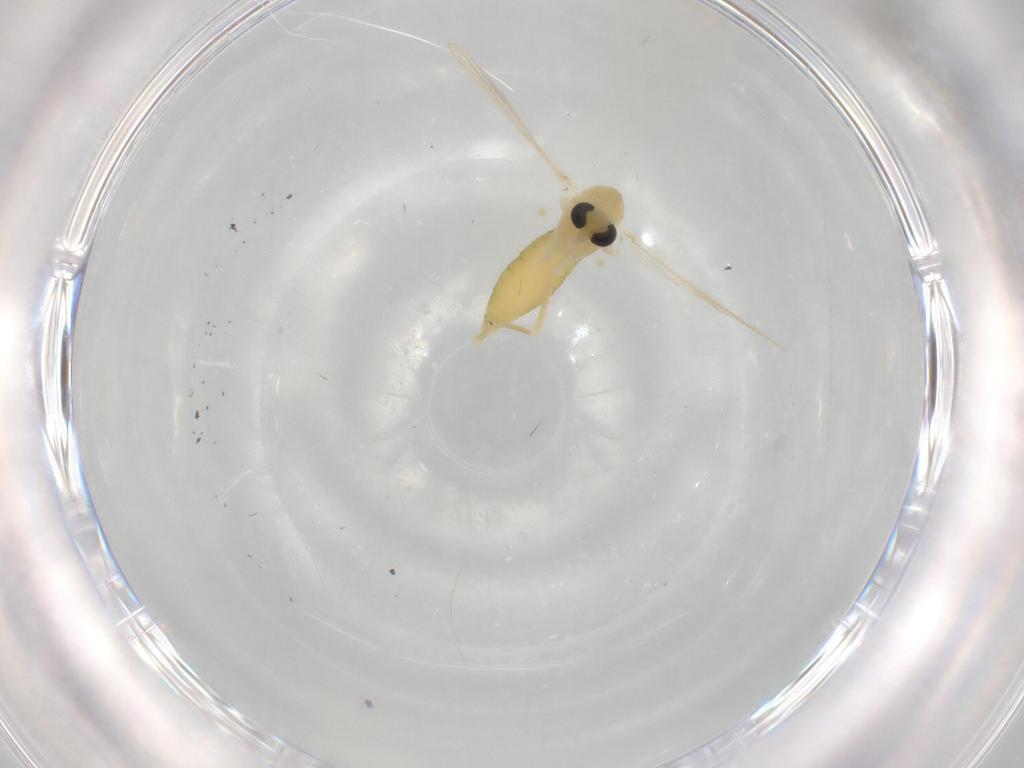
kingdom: Animalia
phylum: Arthropoda
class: Insecta
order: Diptera
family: Chironomidae
